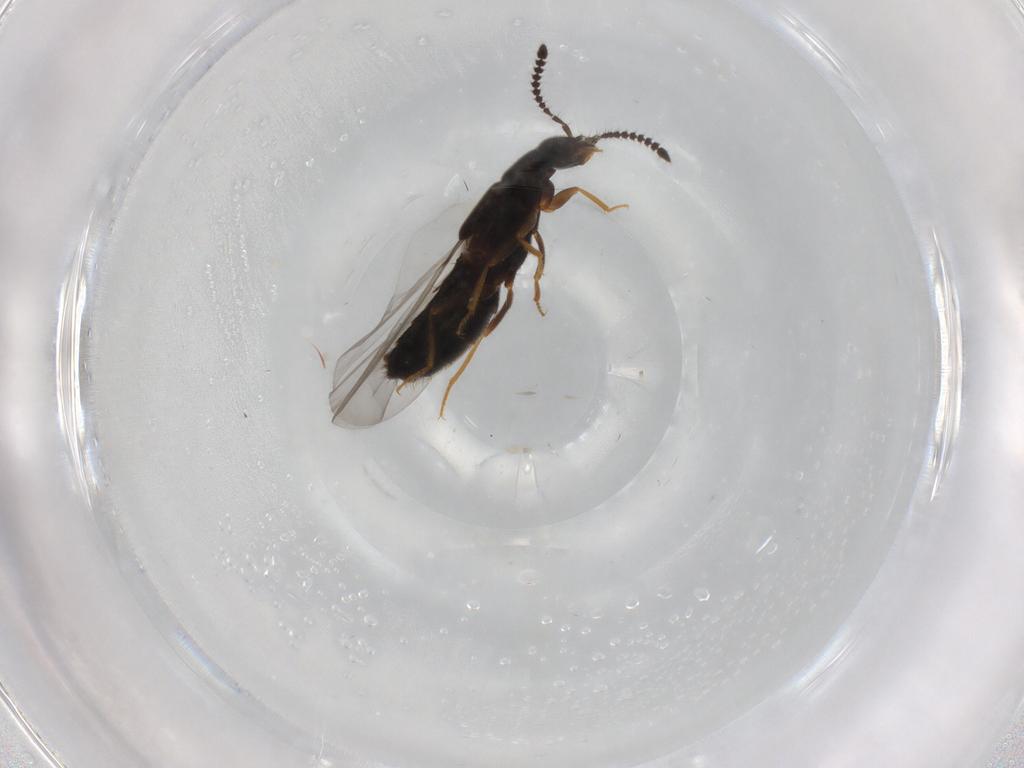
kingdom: Animalia
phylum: Arthropoda
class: Insecta
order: Coleoptera
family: Staphylinidae
